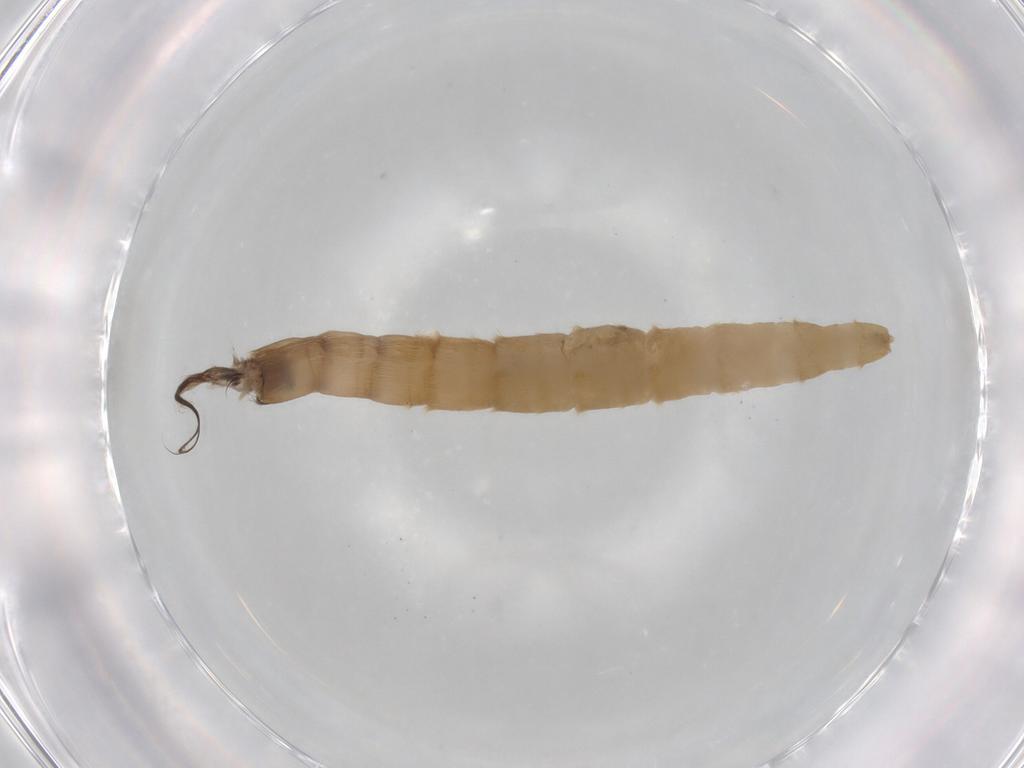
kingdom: Animalia
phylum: Arthropoda
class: Insecta
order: Diptera
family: Limoniidae
